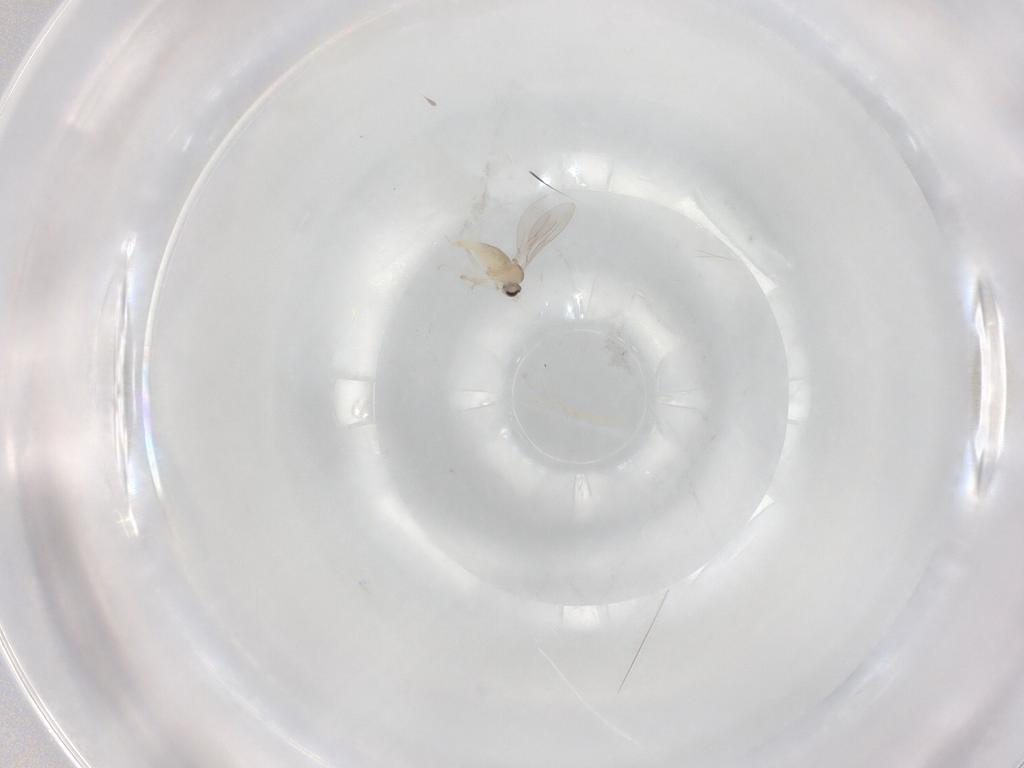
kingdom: Animalia
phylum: Arthropoda
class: Insecta
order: Diptera
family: Cecidomyiidae
